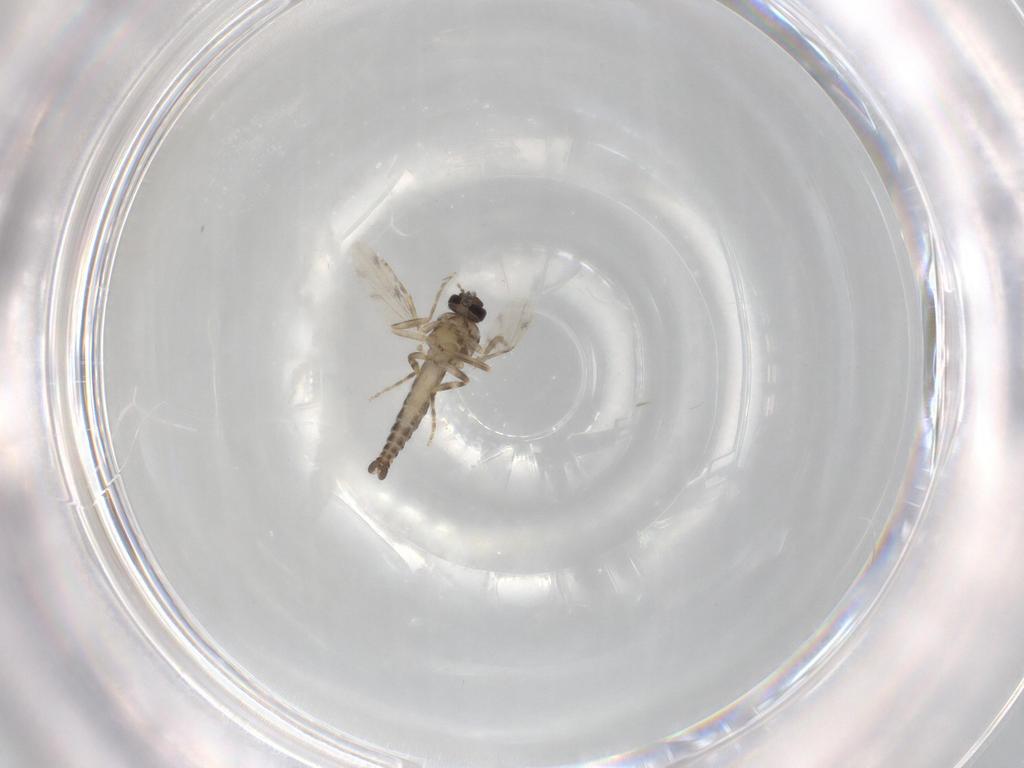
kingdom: Animalia
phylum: Arthropoda
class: Insecta
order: Diptera
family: Ceratopogonidae
